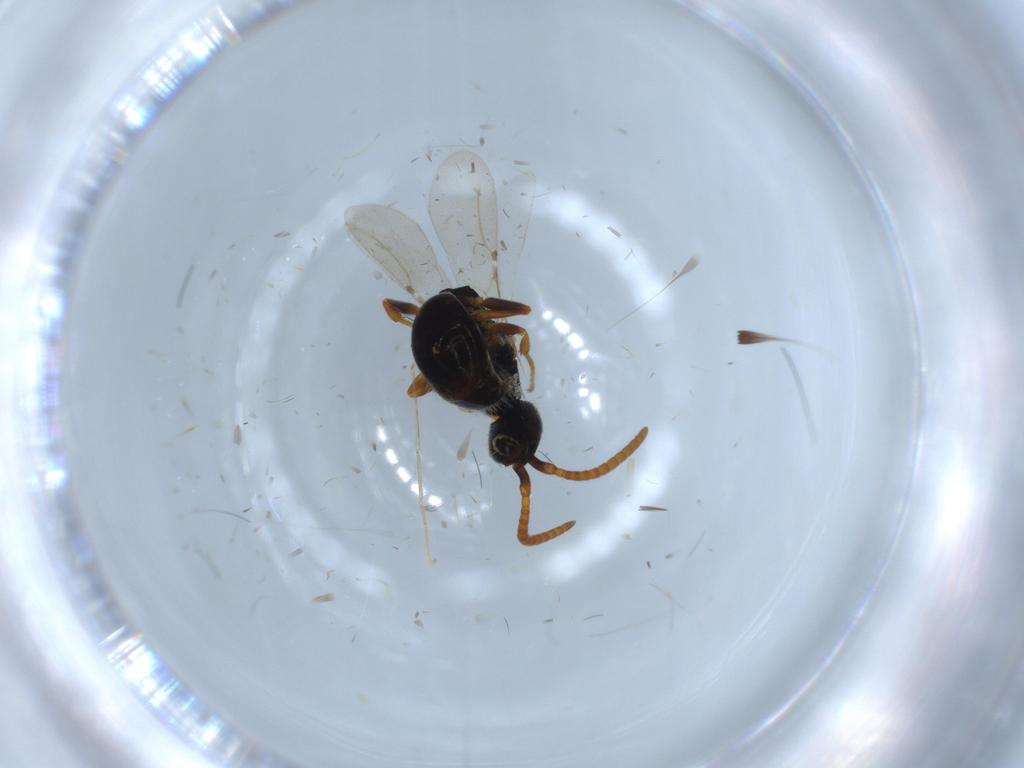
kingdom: Animalia
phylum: Arthropoda
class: Insecta
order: Hymenoptera
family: Bethylidae
